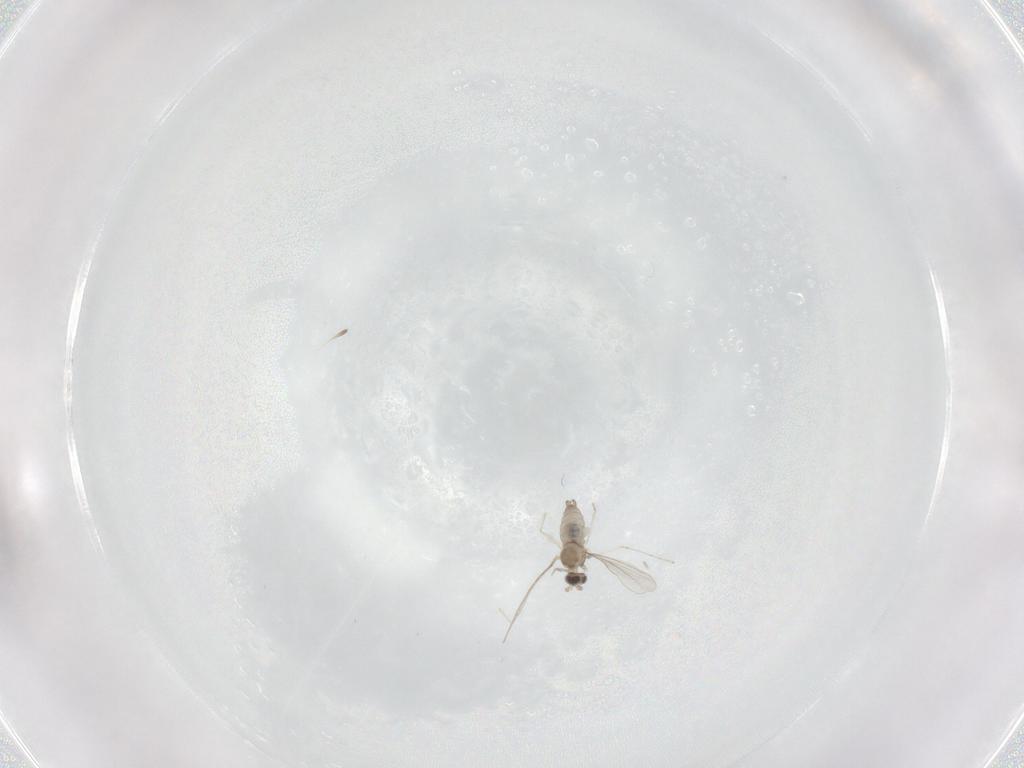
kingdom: Animalia
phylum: Arthropoda
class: Insecta
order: Diptera
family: Cecidomyiidae
